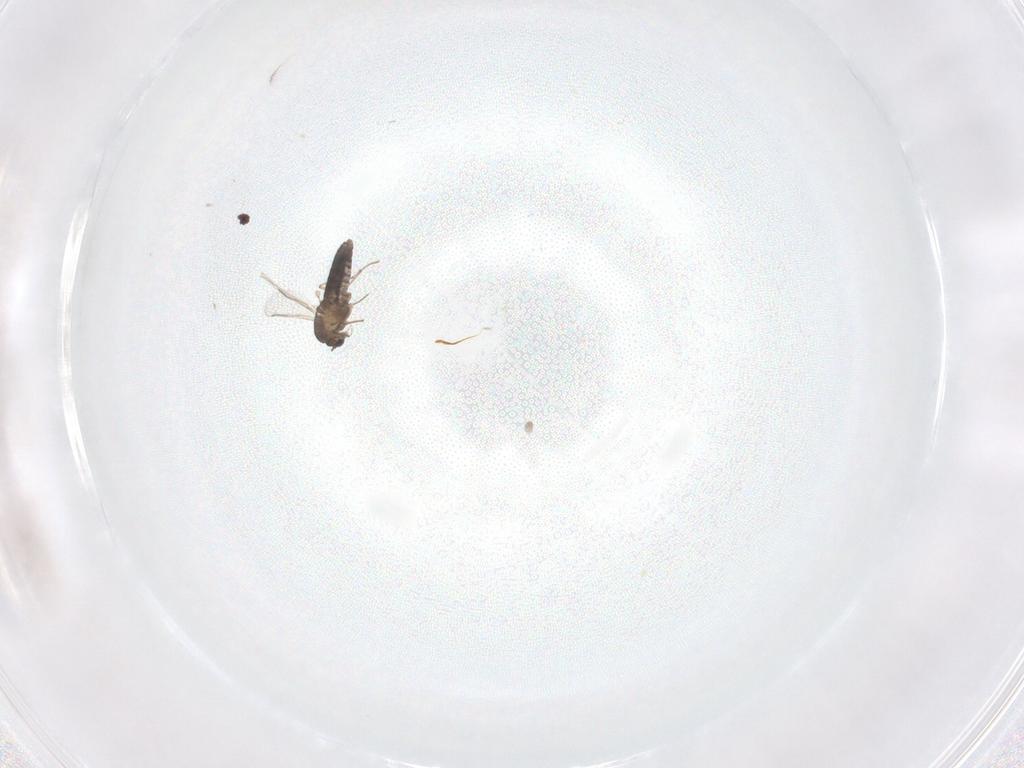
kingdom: Animalia
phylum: Arthropoda
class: Insecta
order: Diptera
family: Chironomidae
